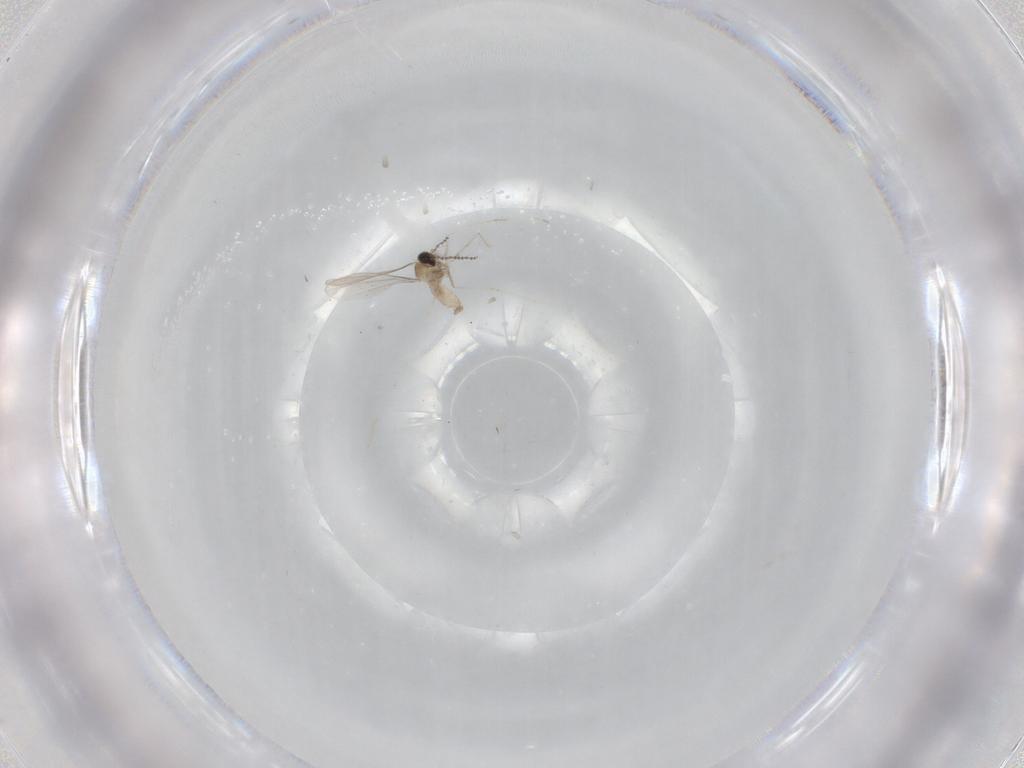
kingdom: Animalia
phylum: Arthropoda
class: Insecta
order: Diptera
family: Cecidomyiidae
